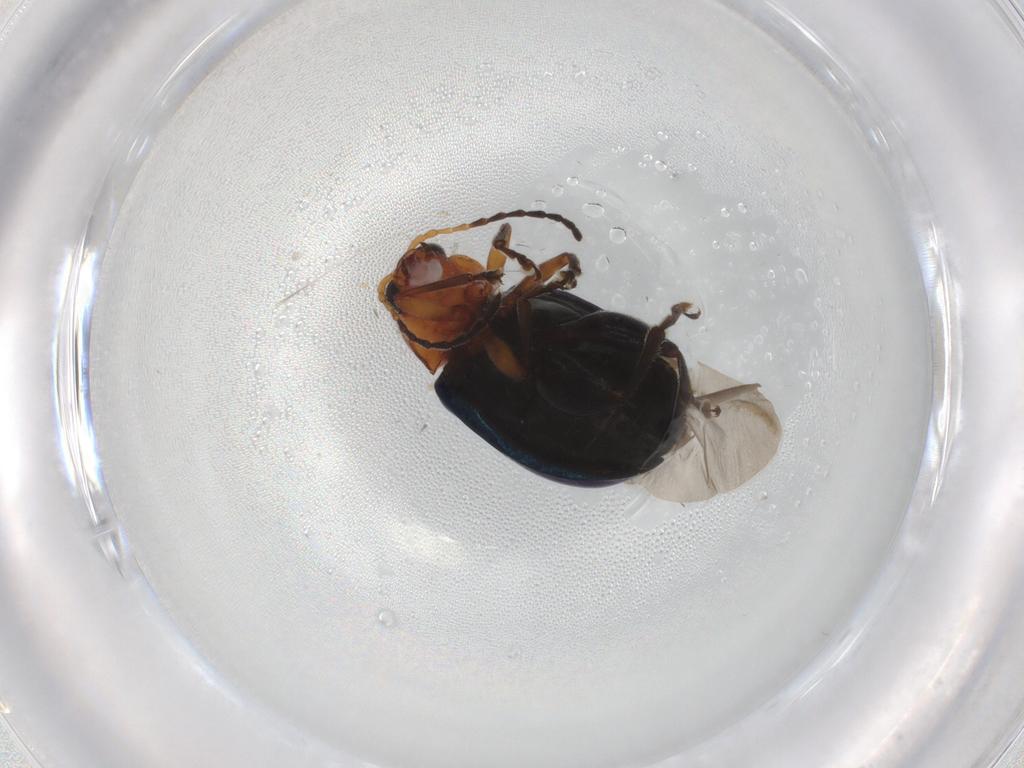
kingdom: Animalia
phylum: Arthropoda
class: Insecta
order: Coleoptera
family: Chrysomelidae
